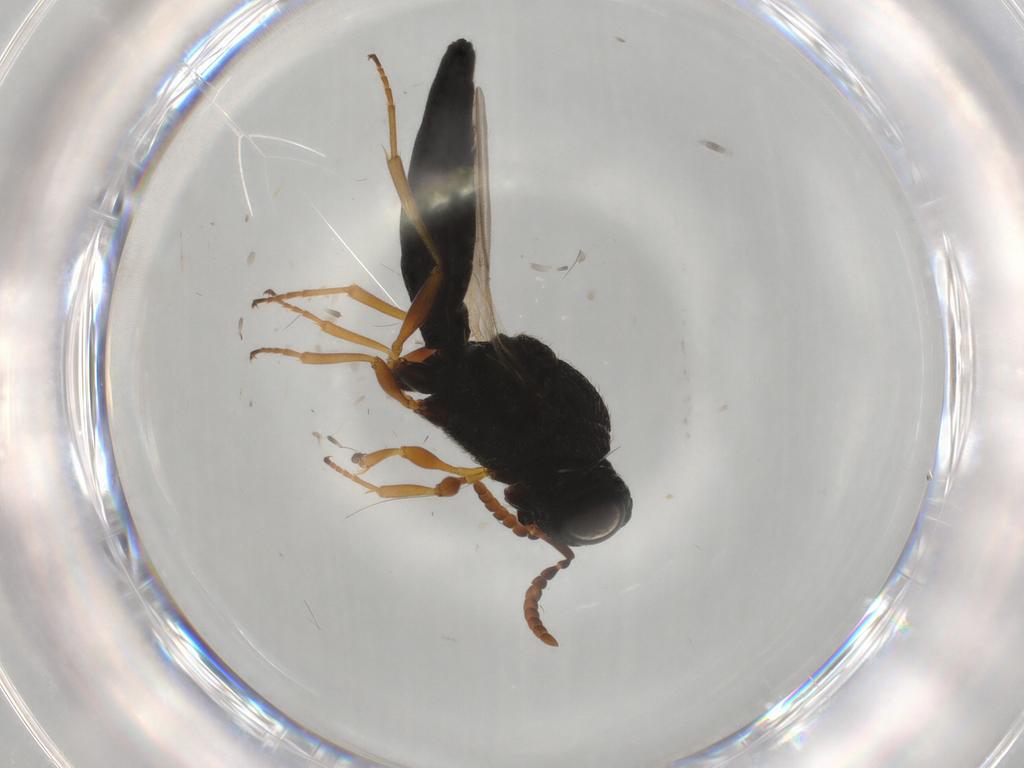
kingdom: Animalia
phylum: Arthropoda
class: Insecta
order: Hymenoptera
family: Scelionidae
